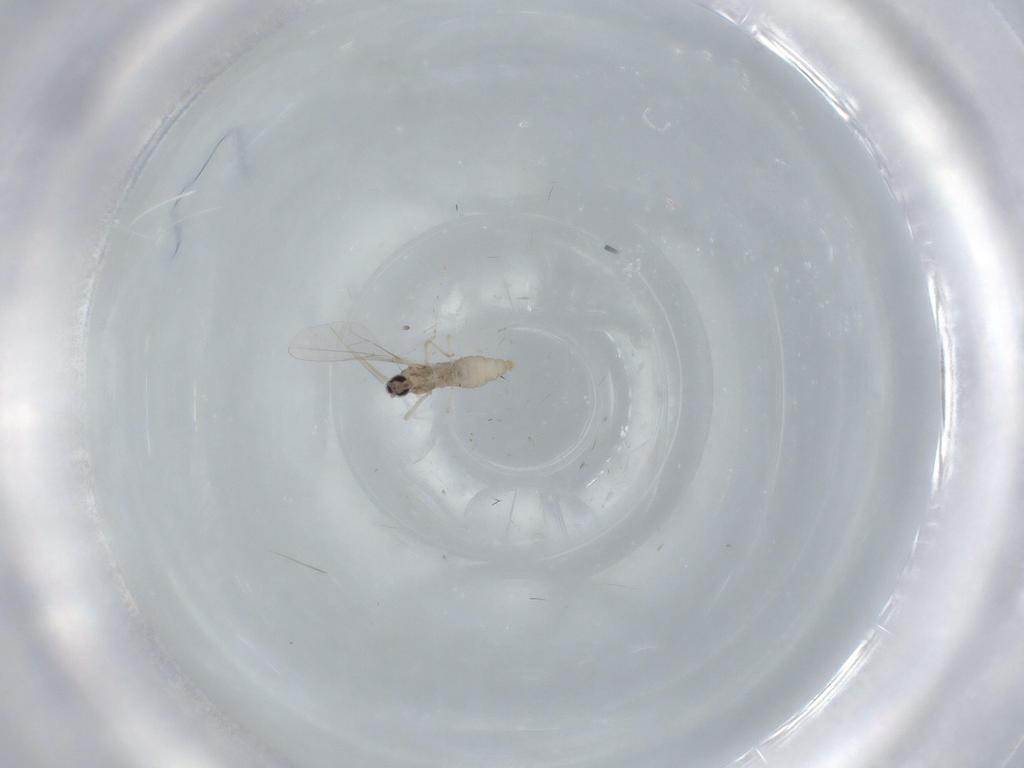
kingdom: Animalia
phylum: Arthropoda
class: Insecta
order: Diptera
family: Cecidomyiidae
